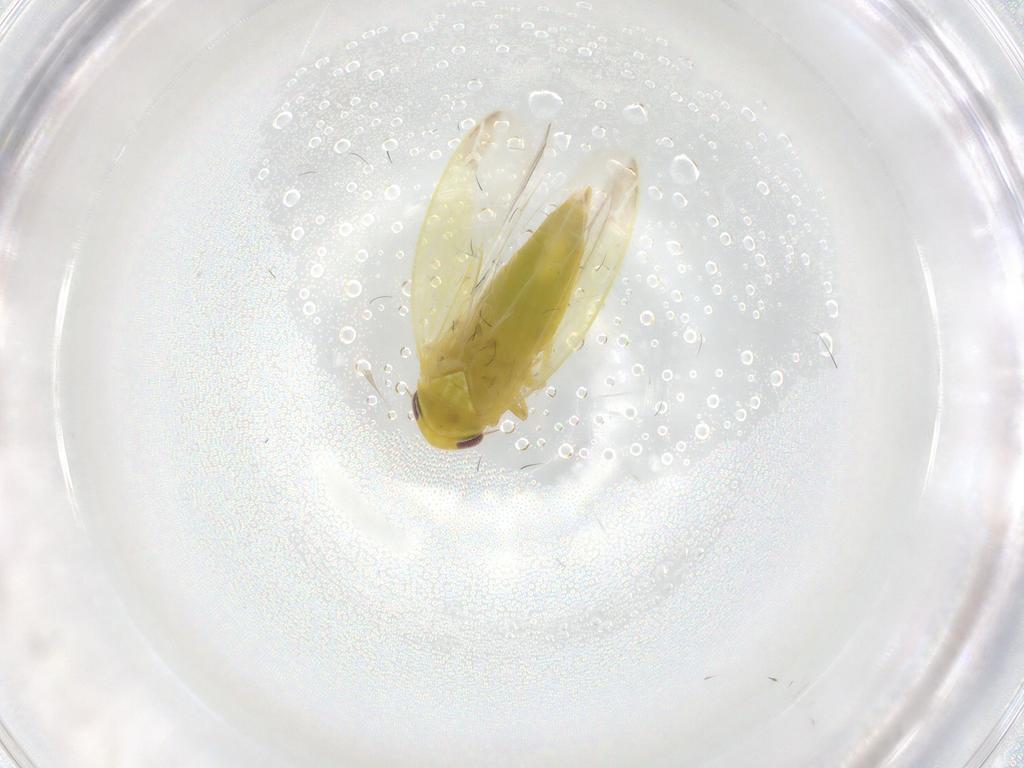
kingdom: Animalia
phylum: Arthropoda
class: Insecta
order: Hemiptera
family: Cicadellidae
